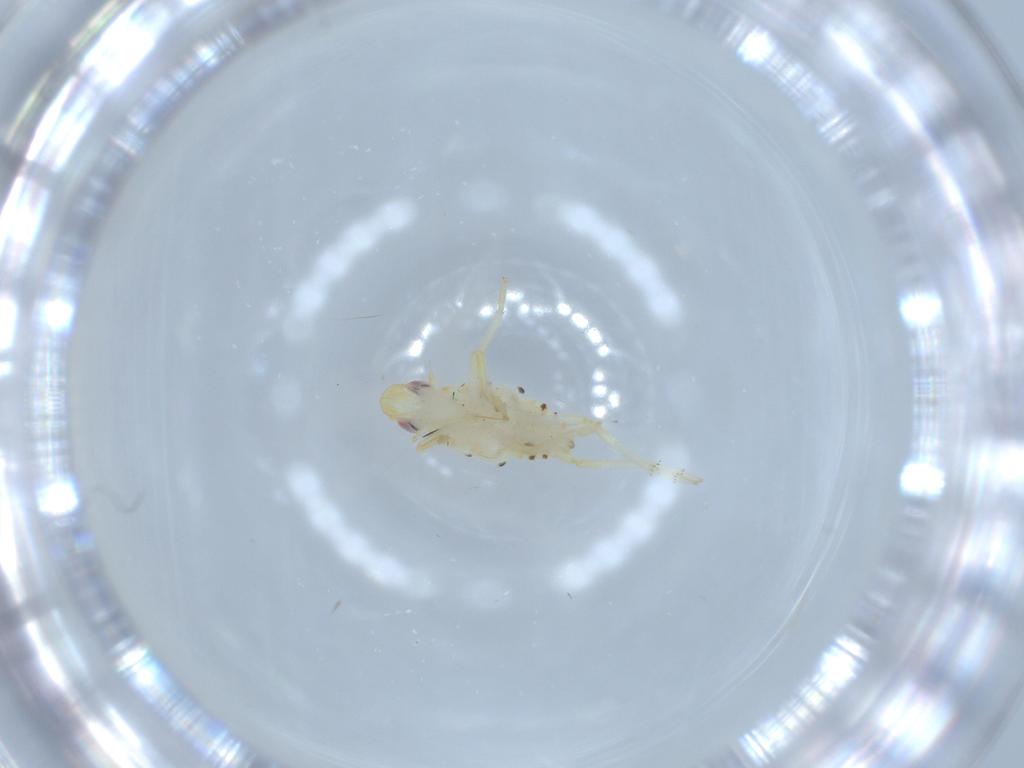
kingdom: Animalia
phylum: Arthropoda
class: Insecta
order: Hemiptera
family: Tropiduchidae
